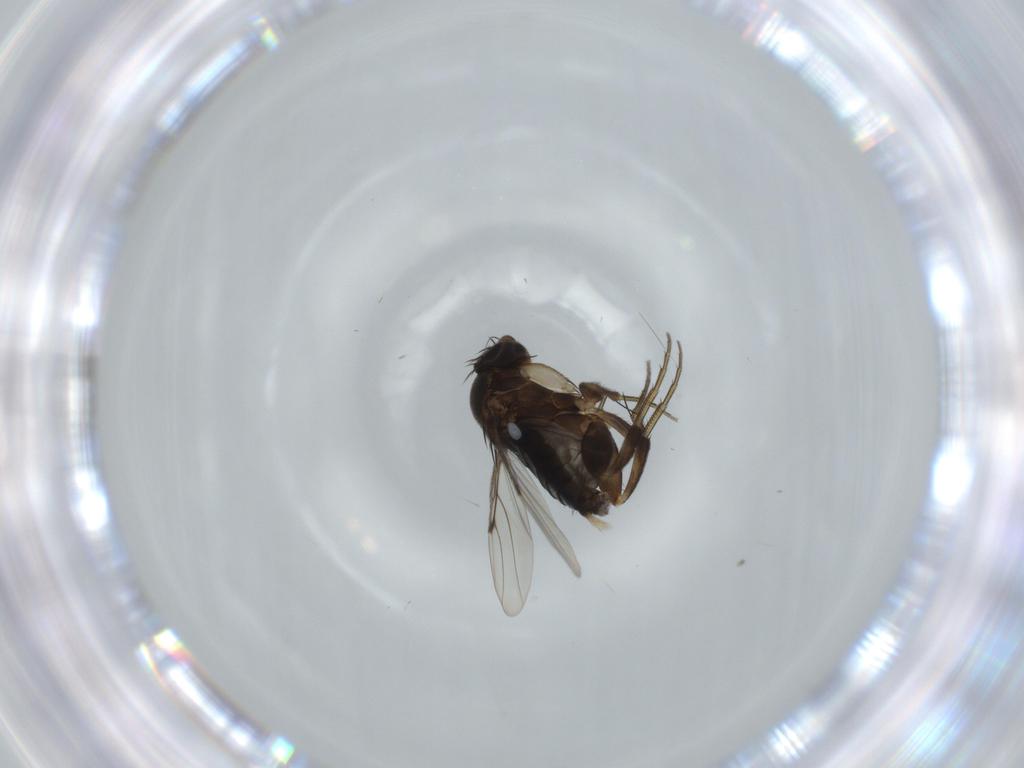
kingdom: Animalia
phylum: Arthropoda
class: Insecta
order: Diptera
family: Phoridae
